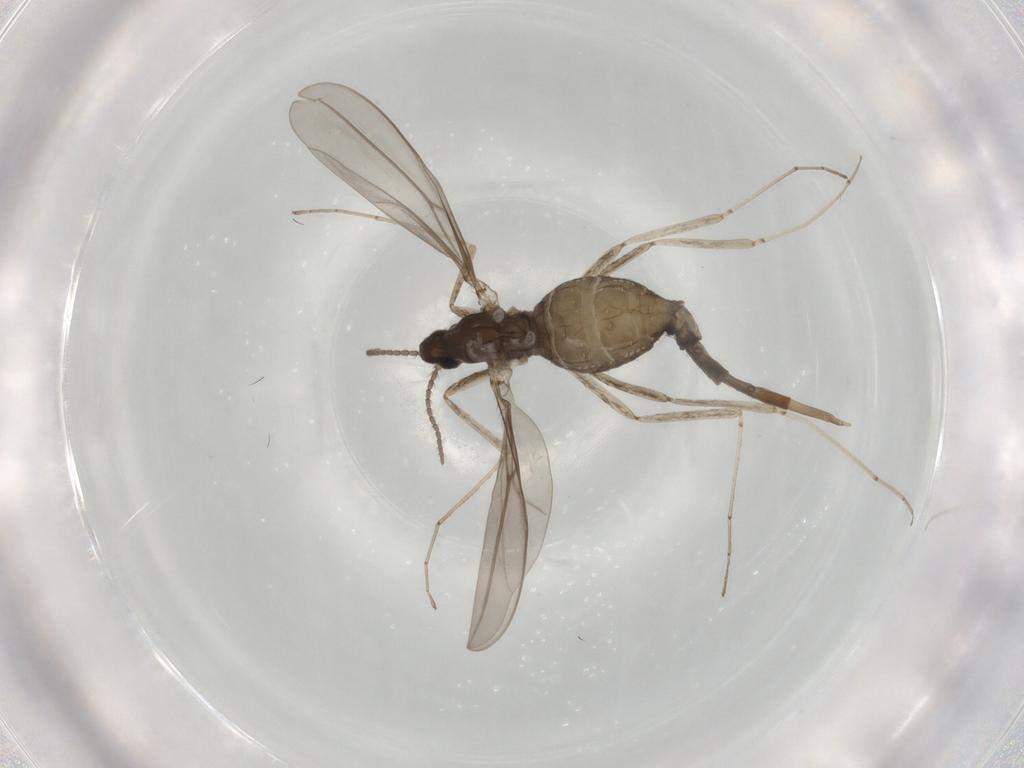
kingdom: Animalia
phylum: Arthropoda
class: Insecta
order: Diptera
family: Cecidomyiidae
